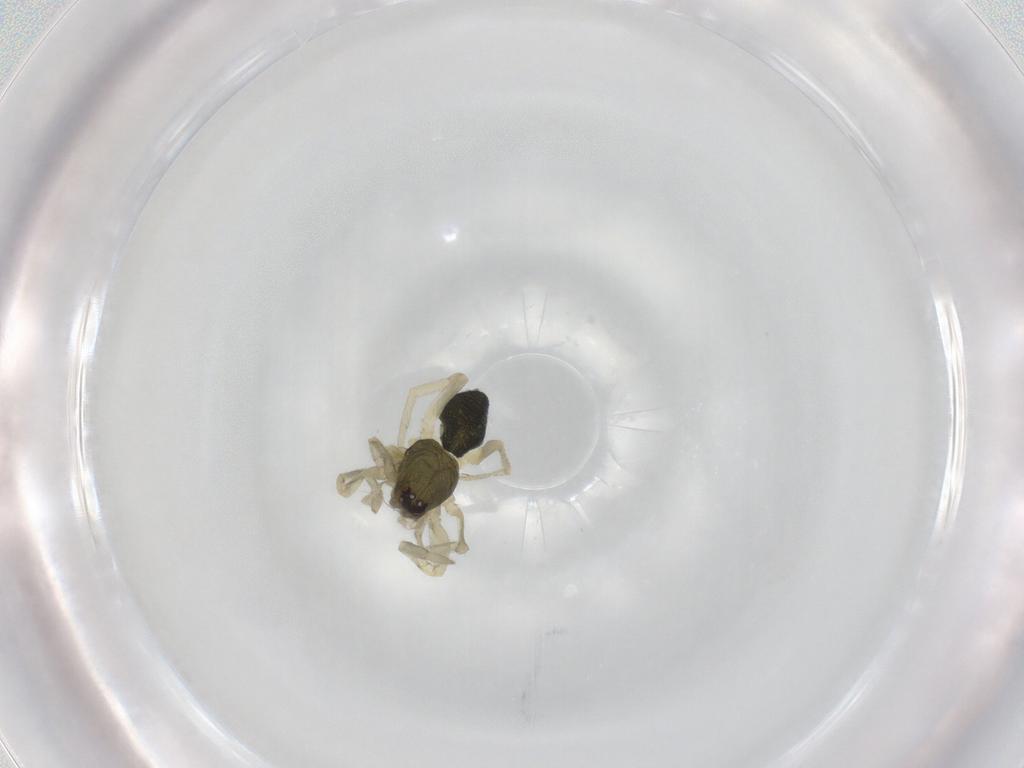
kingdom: Animalia
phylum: Arthropoda
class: Arachnida
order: Araneae
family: Trachelidae
